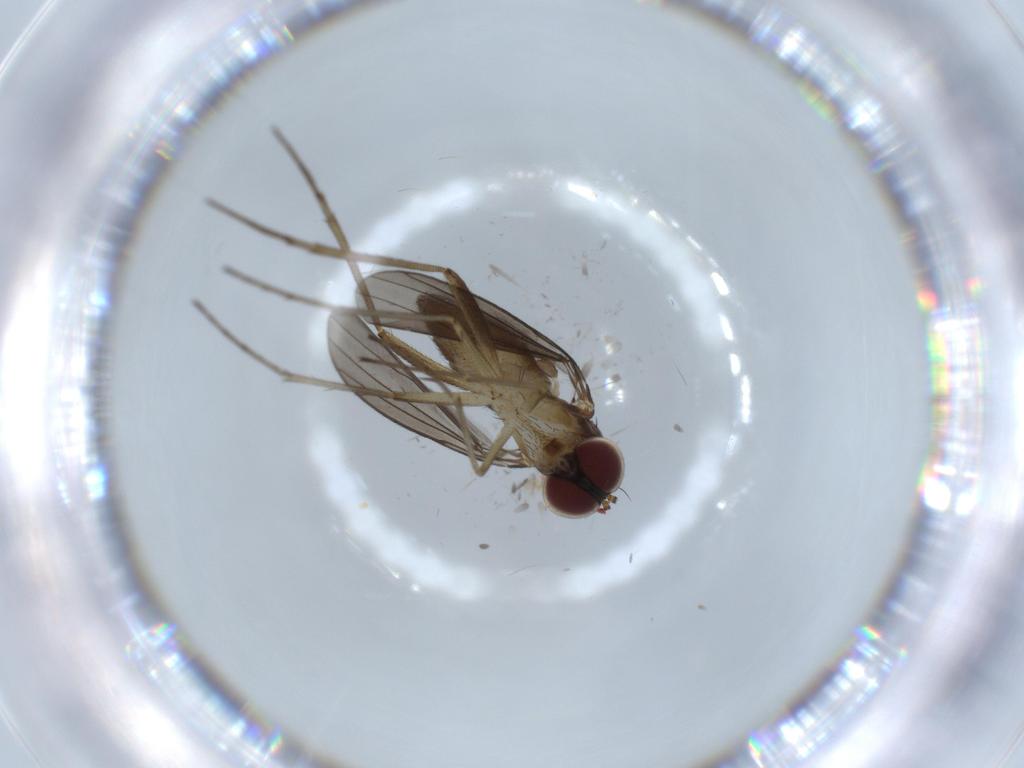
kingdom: Animalia
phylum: Arthropoda
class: Insecta
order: Diptera
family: Dolichopodidae
